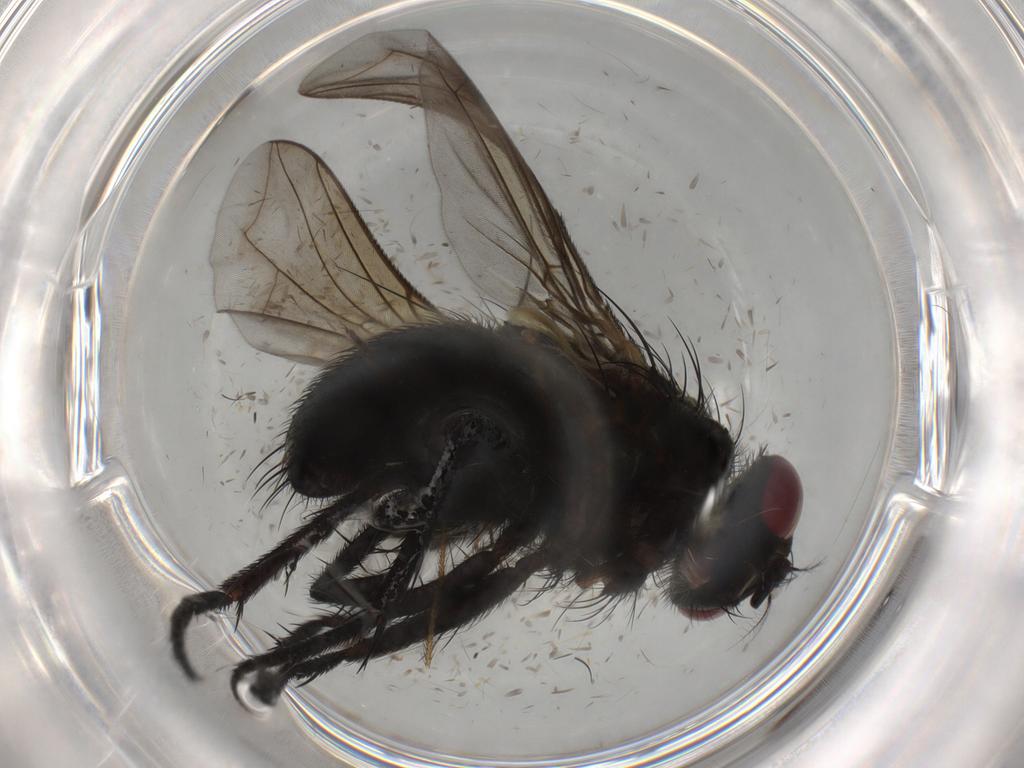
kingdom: Animalia
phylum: Arthropoda
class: Insecta
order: Diptera
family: Sarcophagidae
